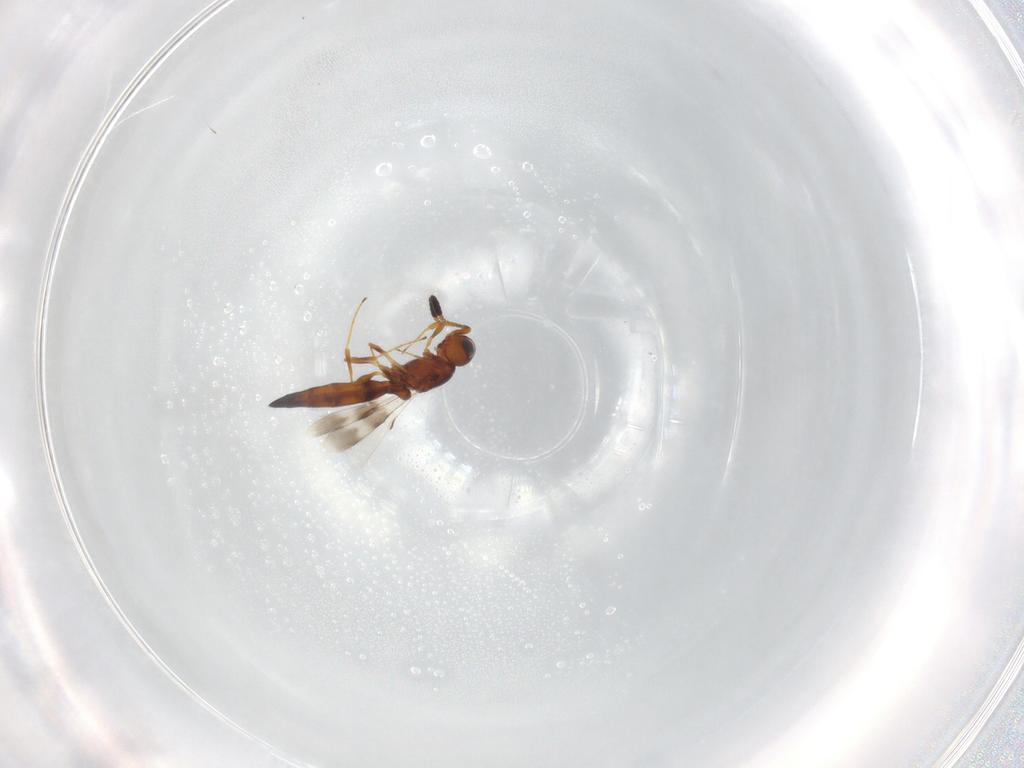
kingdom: Animalia
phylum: Arthropoda
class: Insecta
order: Hymenoptera
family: Scelionidae
